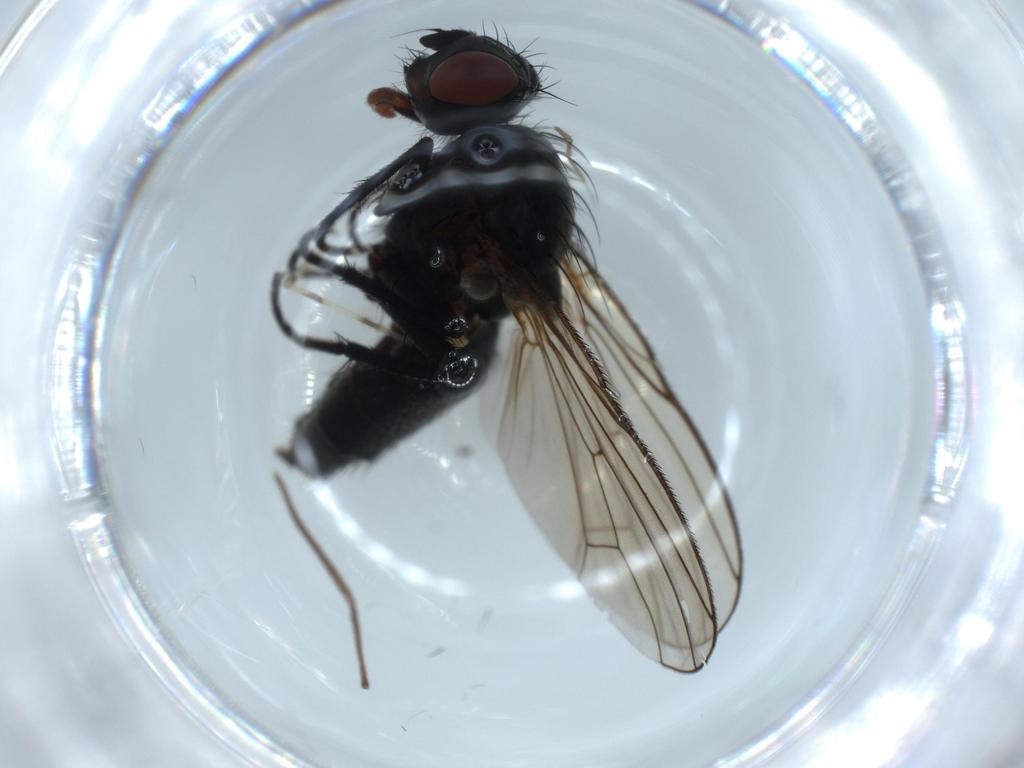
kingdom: Animalia
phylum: Arthropoda
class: Insecta
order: Diptera
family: Anthomyiidae
